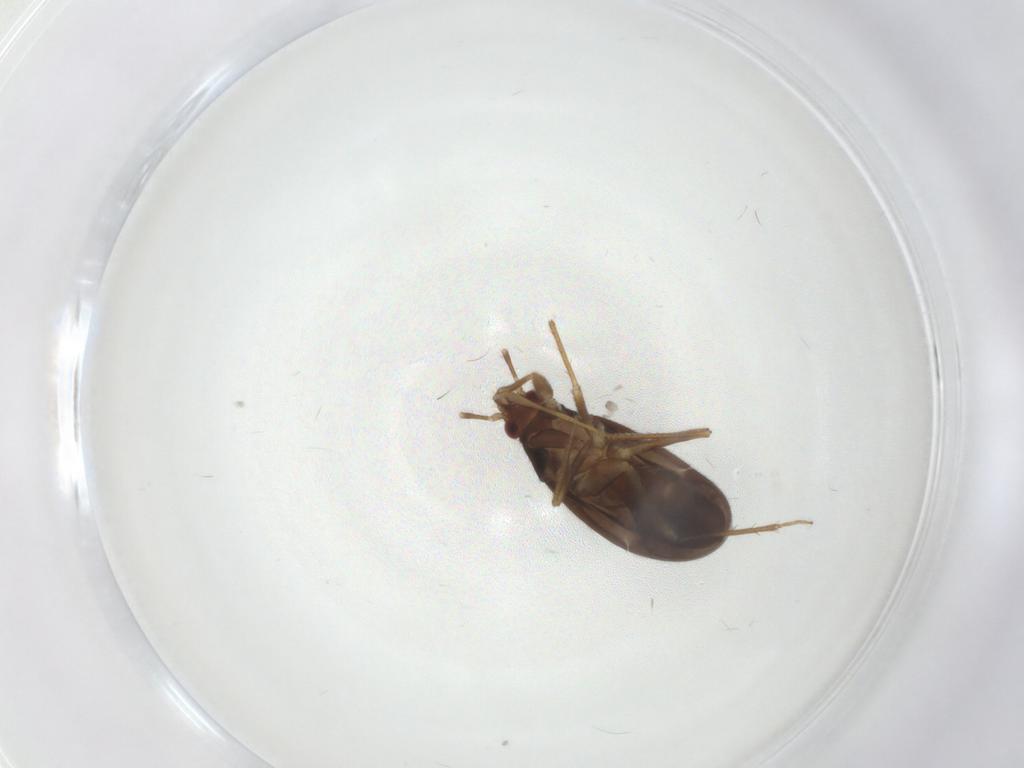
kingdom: Animalia
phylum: Arthropoda
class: Insecta
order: Hemiptera
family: Ceratocombidae
